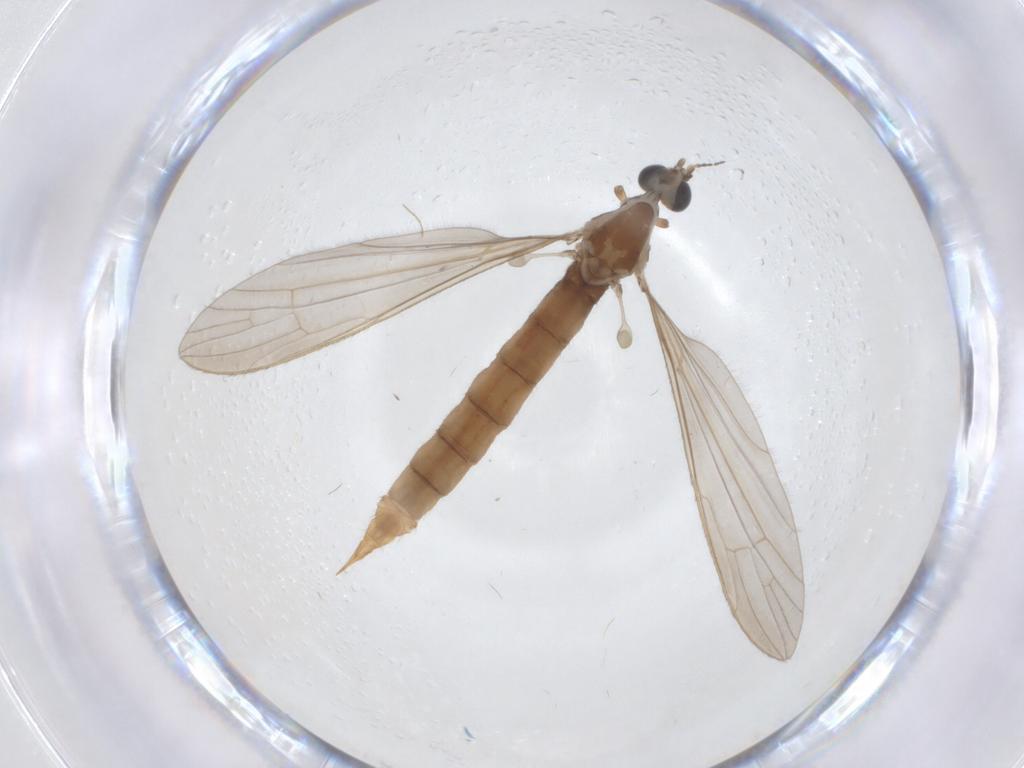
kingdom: Animalia
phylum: Arthropoda
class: Insecta
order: Diptera
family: Limoniidae
